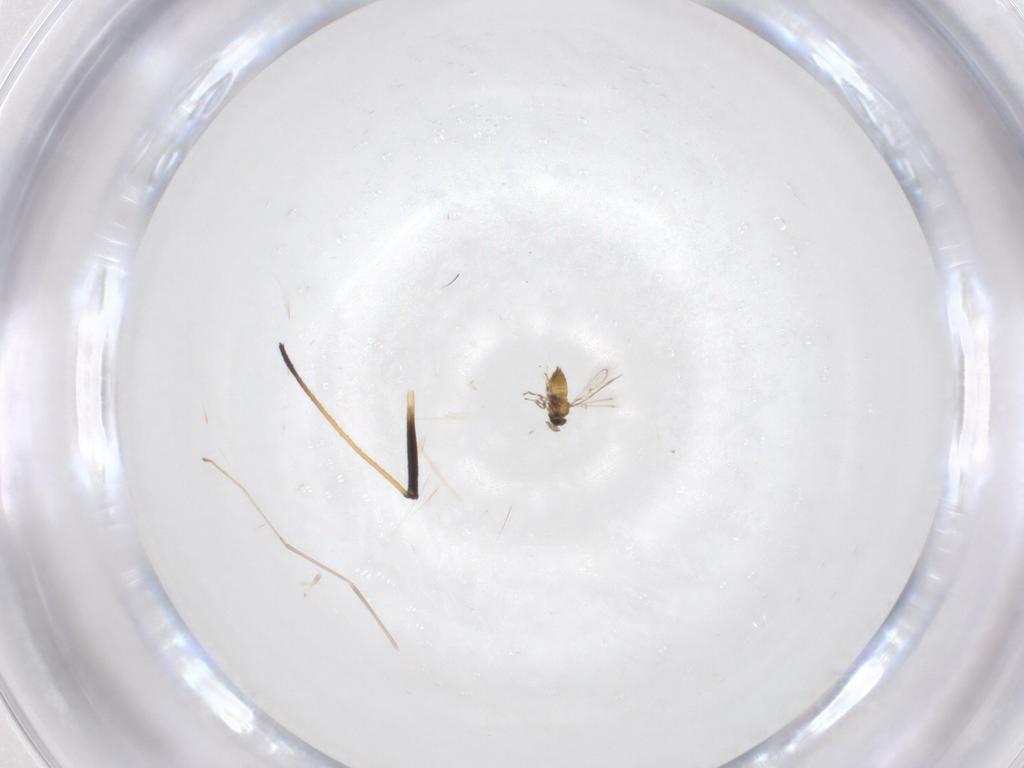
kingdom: Animalia
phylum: Arthropoda
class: Insecta
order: Hymenoptera
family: Trichogrammatidae
